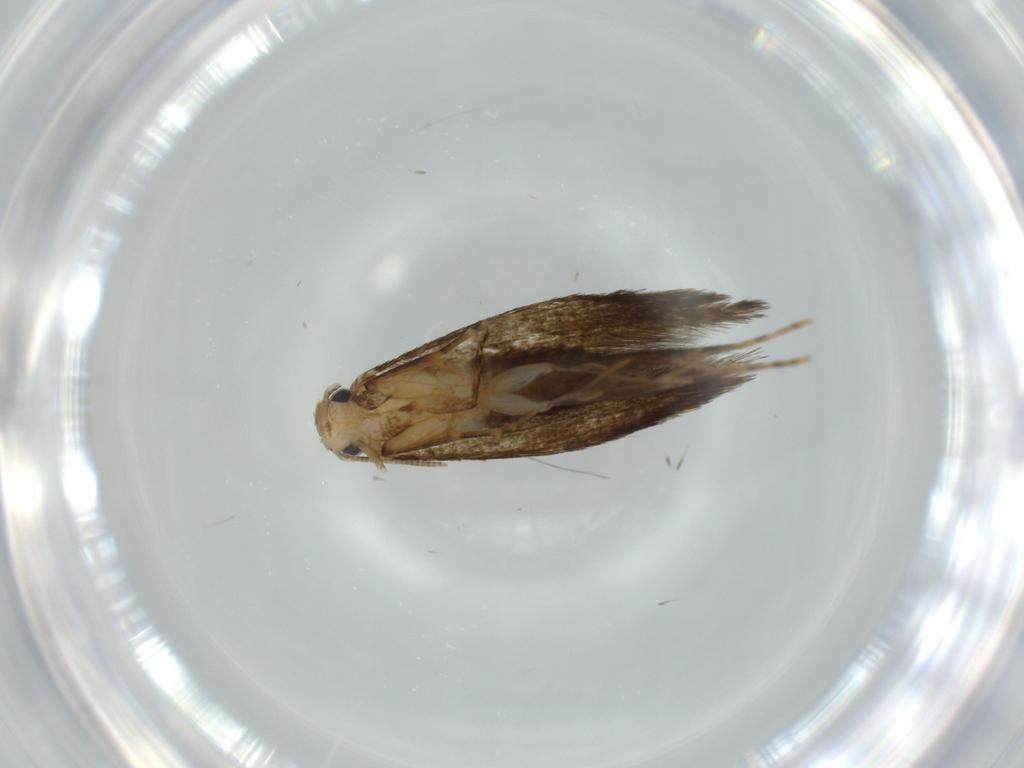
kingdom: Animalia
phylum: Arthropoda
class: Insecta
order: Lepidoptera
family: Tineidae
